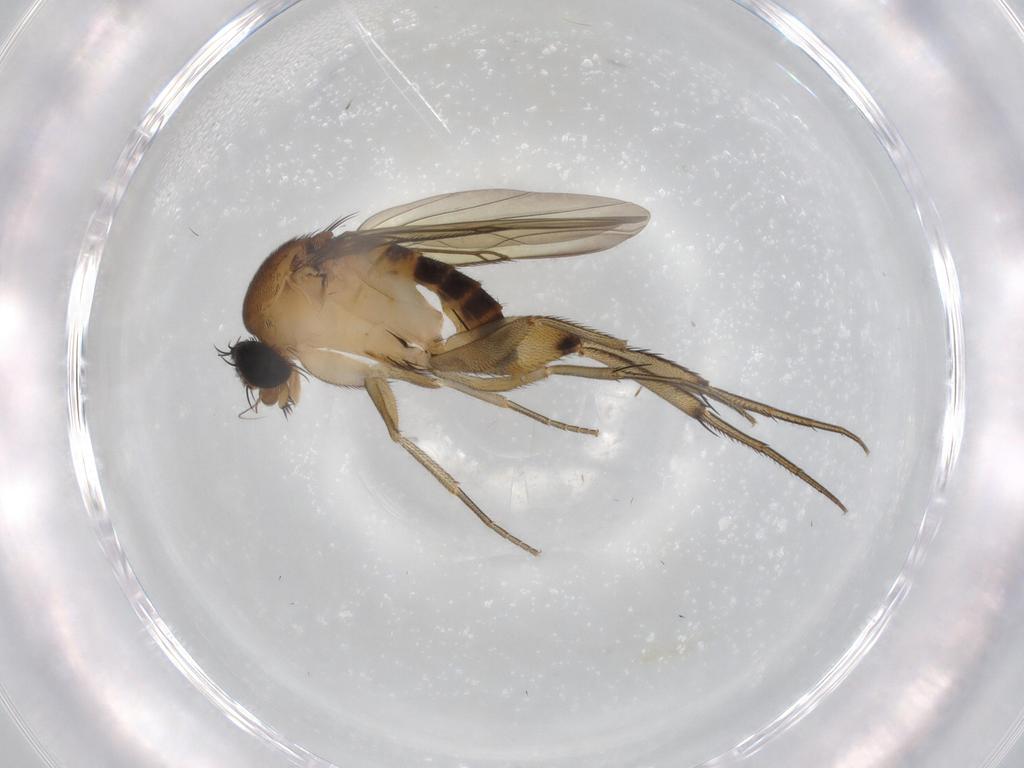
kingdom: Animalia
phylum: Arthropoda
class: Insecta
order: Diptera
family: Phoridae
